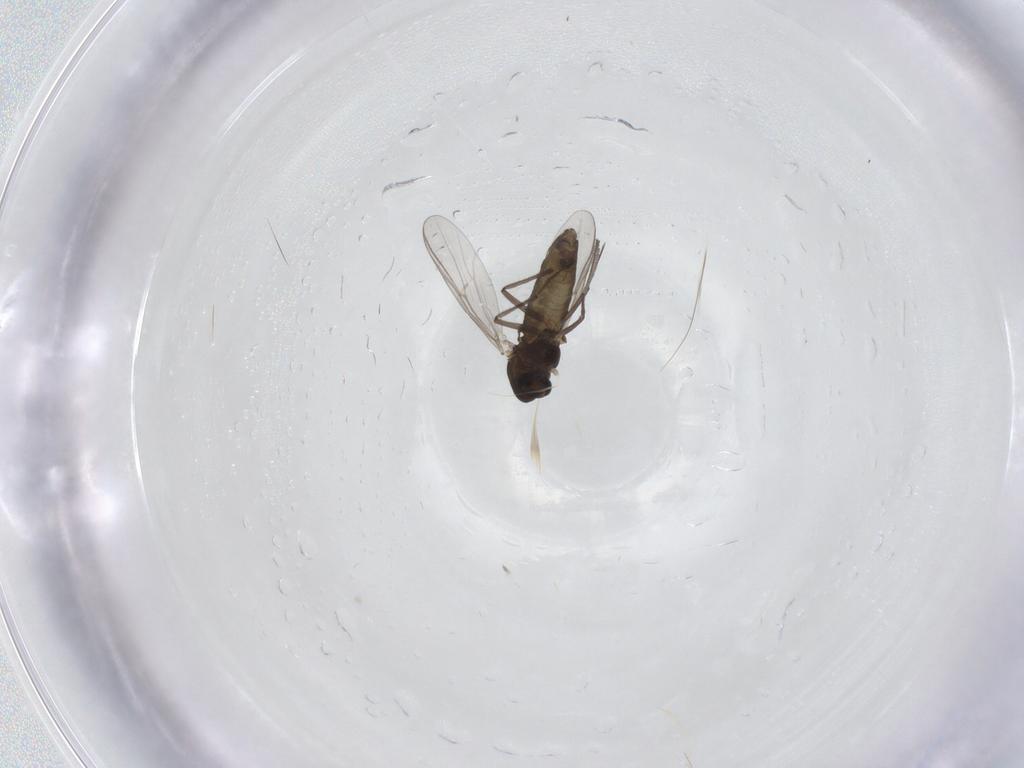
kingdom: Animalia
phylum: Arthropoda
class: Insecta
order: Diptera
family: Chironomidae
